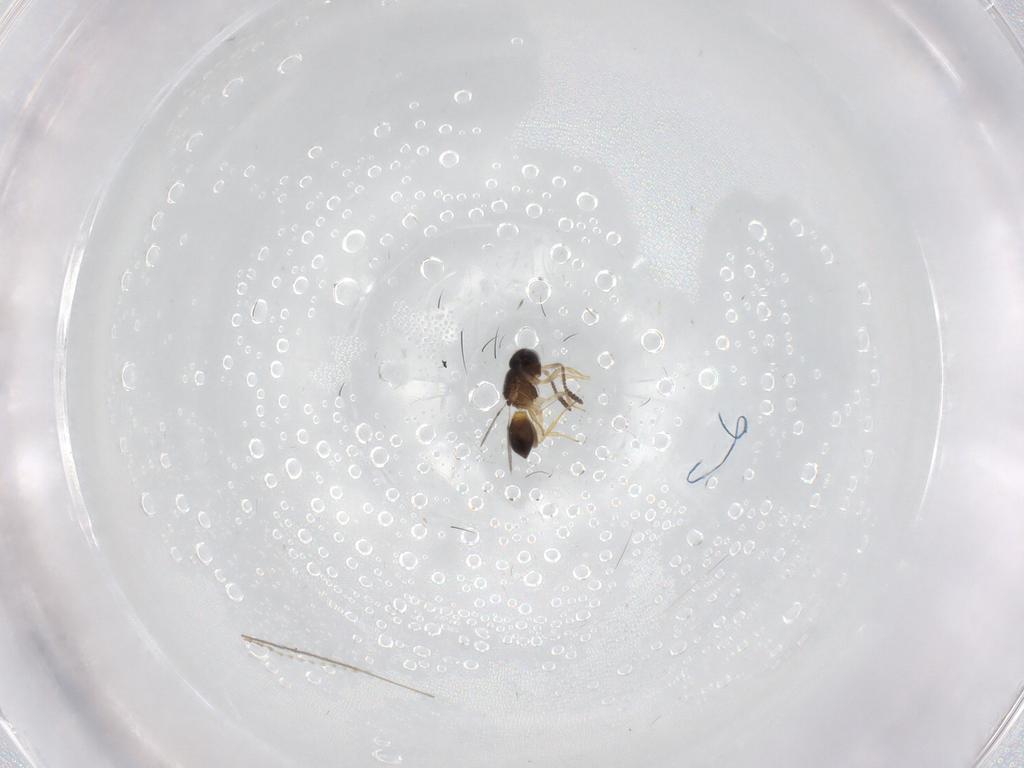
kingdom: Animalia
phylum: Arthropoda
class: Insecta
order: Hymenoptera
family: Scelionidae
